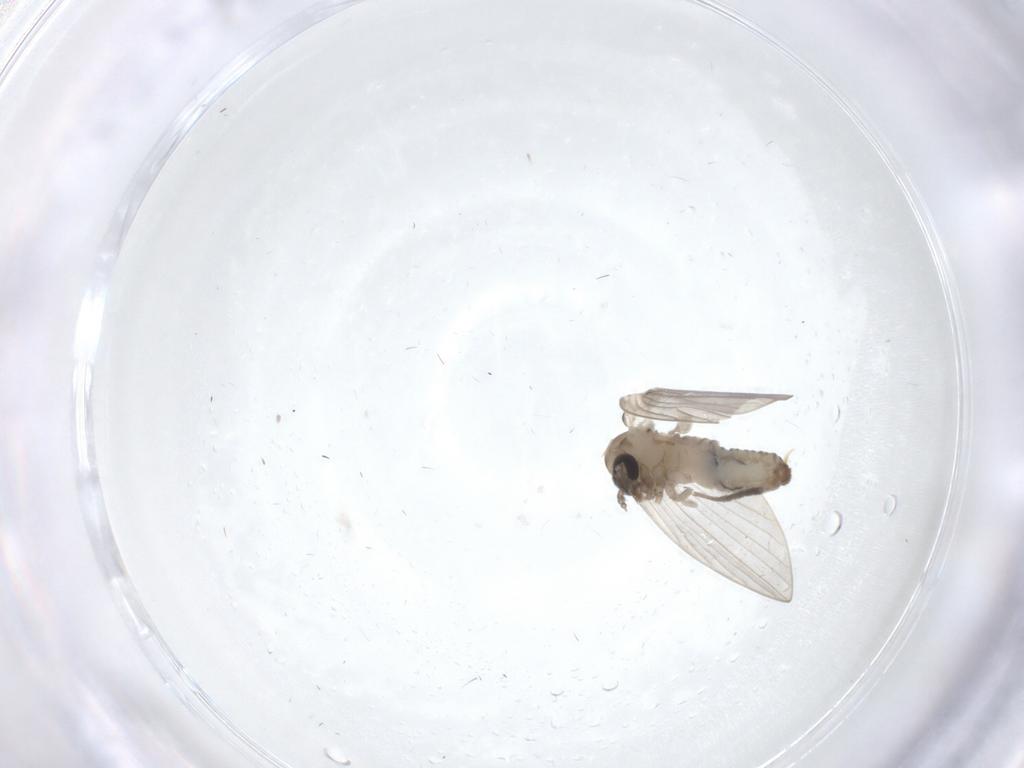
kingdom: Animalia
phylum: Arthropoda
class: Insecta
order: Diptera
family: Psychodidae
